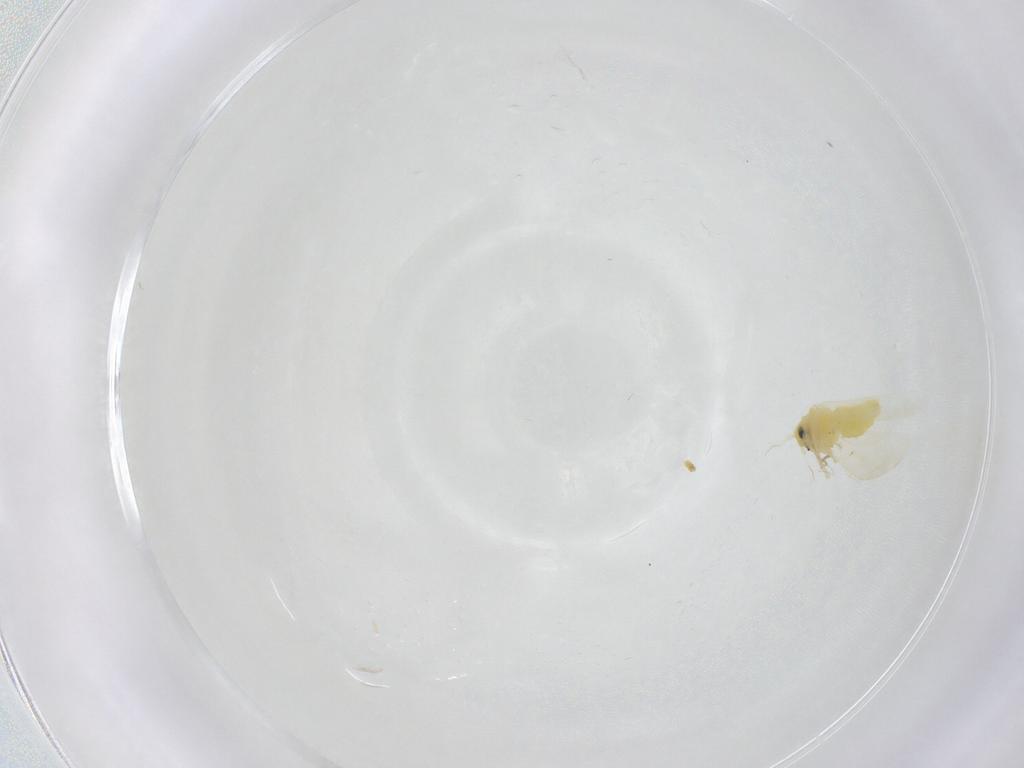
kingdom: Animalia
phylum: Arthropoda
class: Insecta
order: Hemiptera
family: Aleyrodidae
